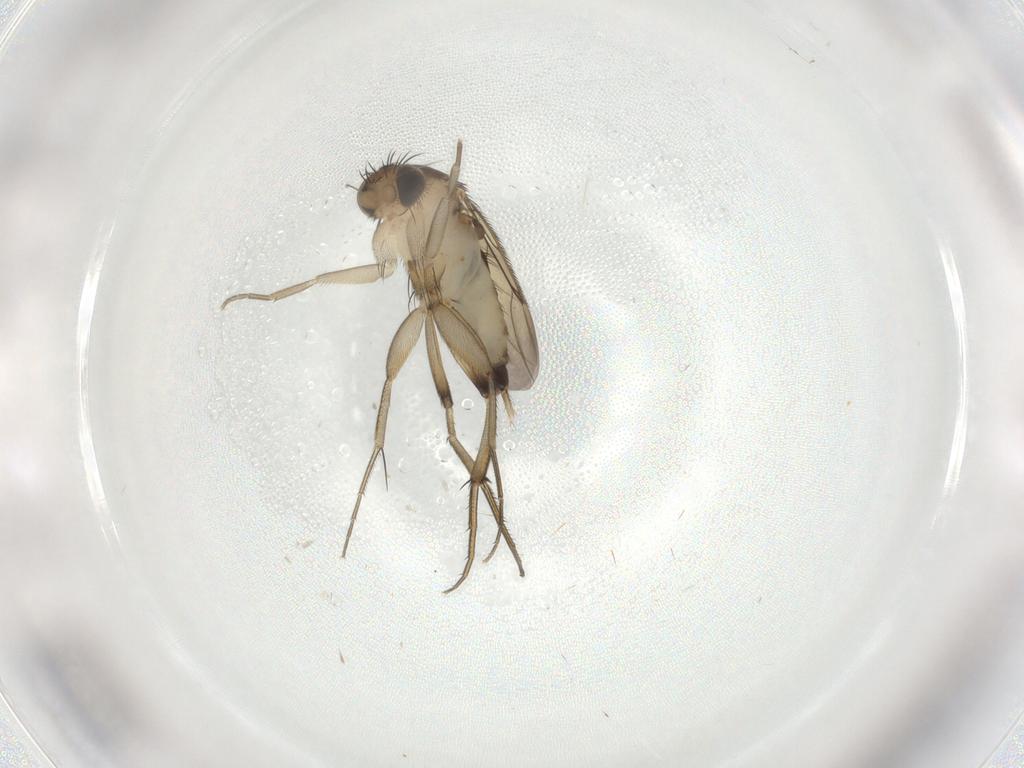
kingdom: Animalia
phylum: Arthropoda
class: Insecta
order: Diptera
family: Phoridae
